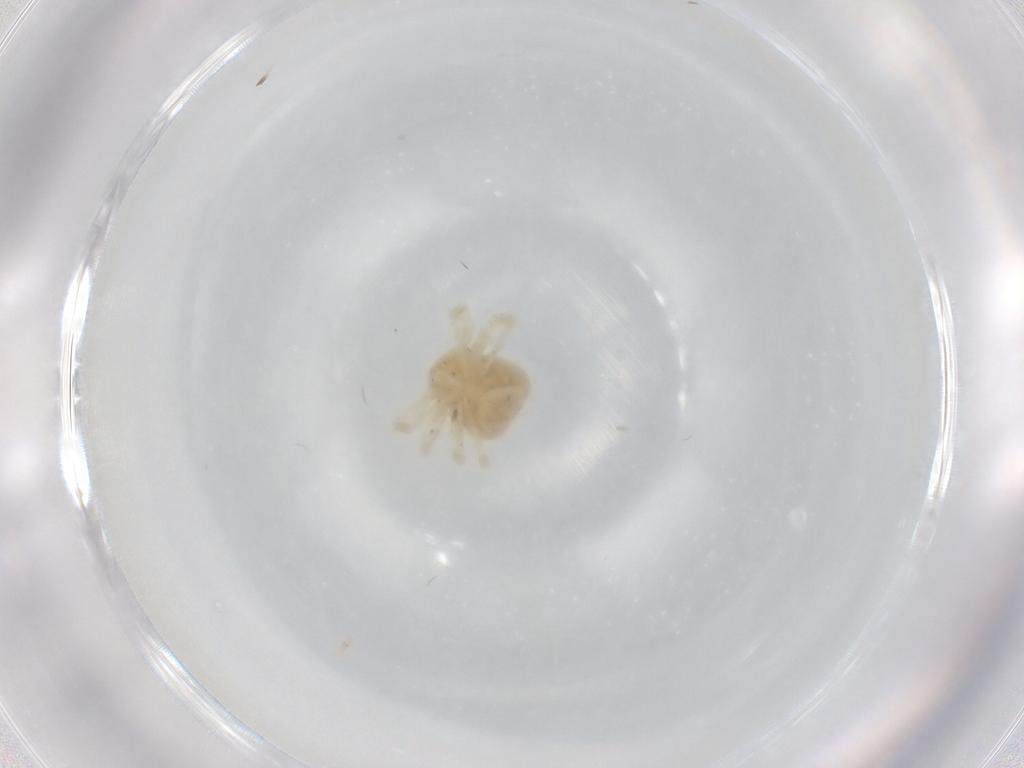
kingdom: Animalia
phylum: Arthropoda
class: Arachnida
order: Trombidiformes
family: Anystidae
